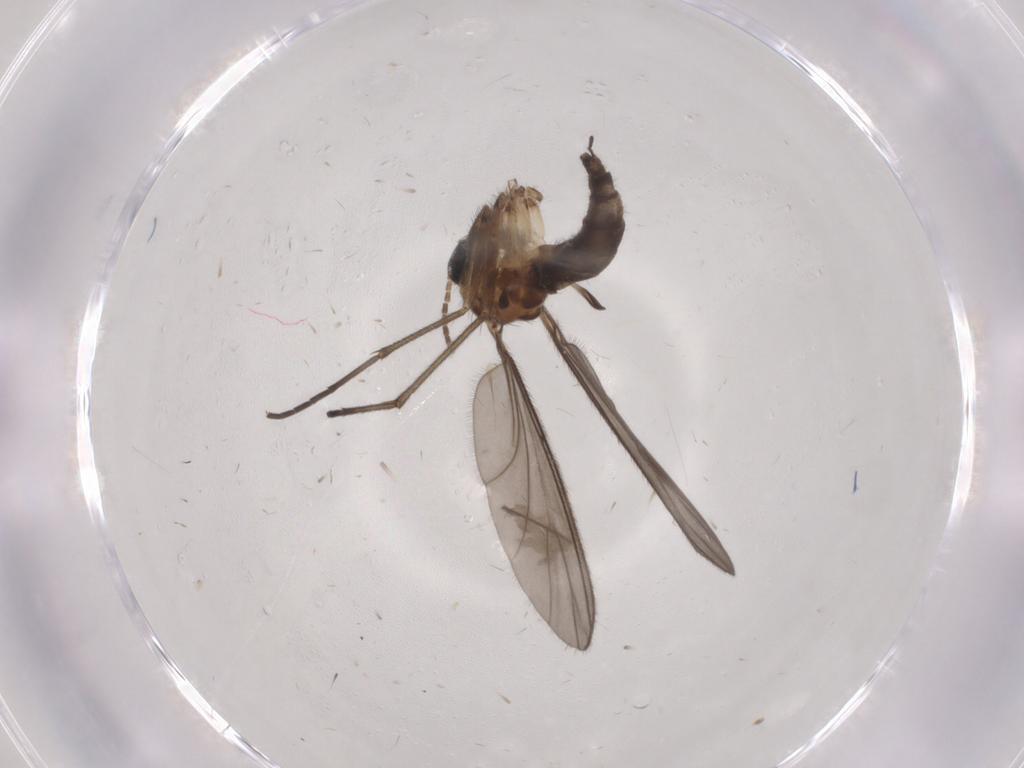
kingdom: Animalia
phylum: Arthropoda
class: Insecta
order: Diptera
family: Sciaridae
